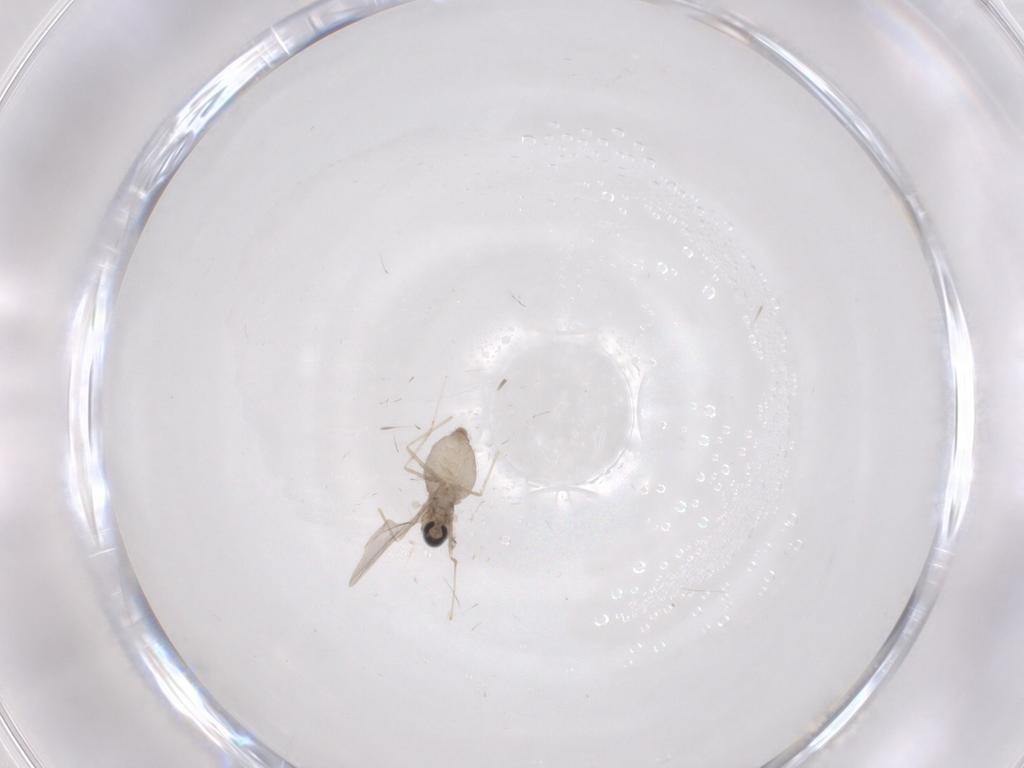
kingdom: Animalia
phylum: Arthropoda
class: Insecta
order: Diptera
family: Cecidomyiidae
